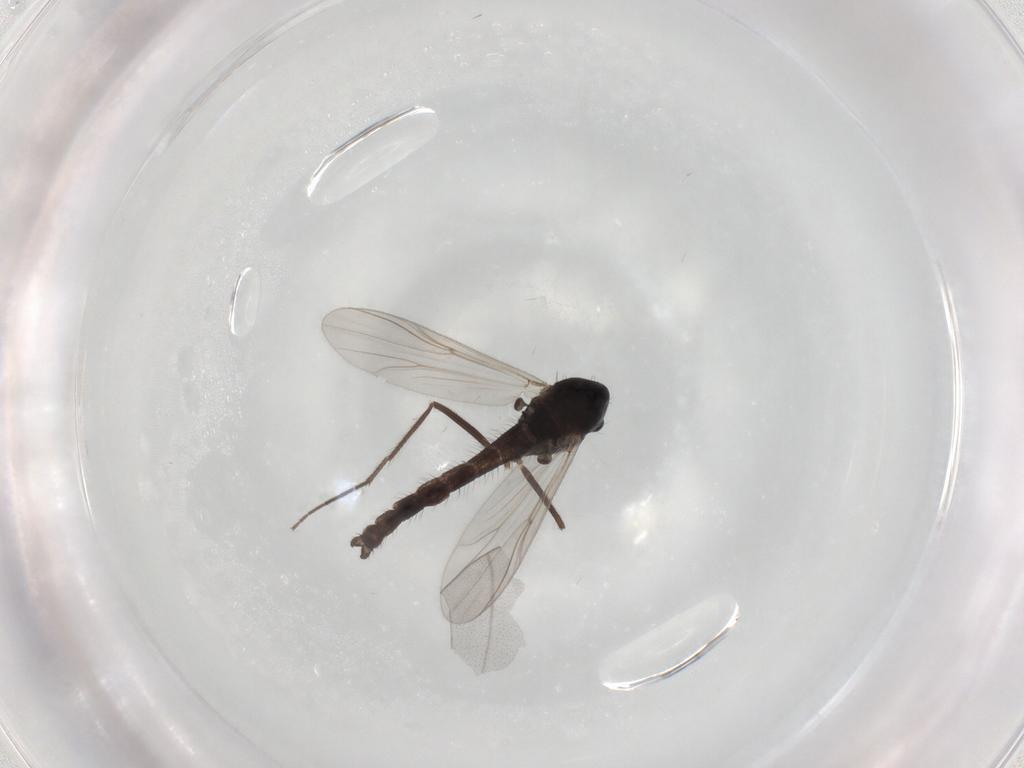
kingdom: Animalia
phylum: Arthropoda
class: Insecta
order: Diptera
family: Chironomidae
